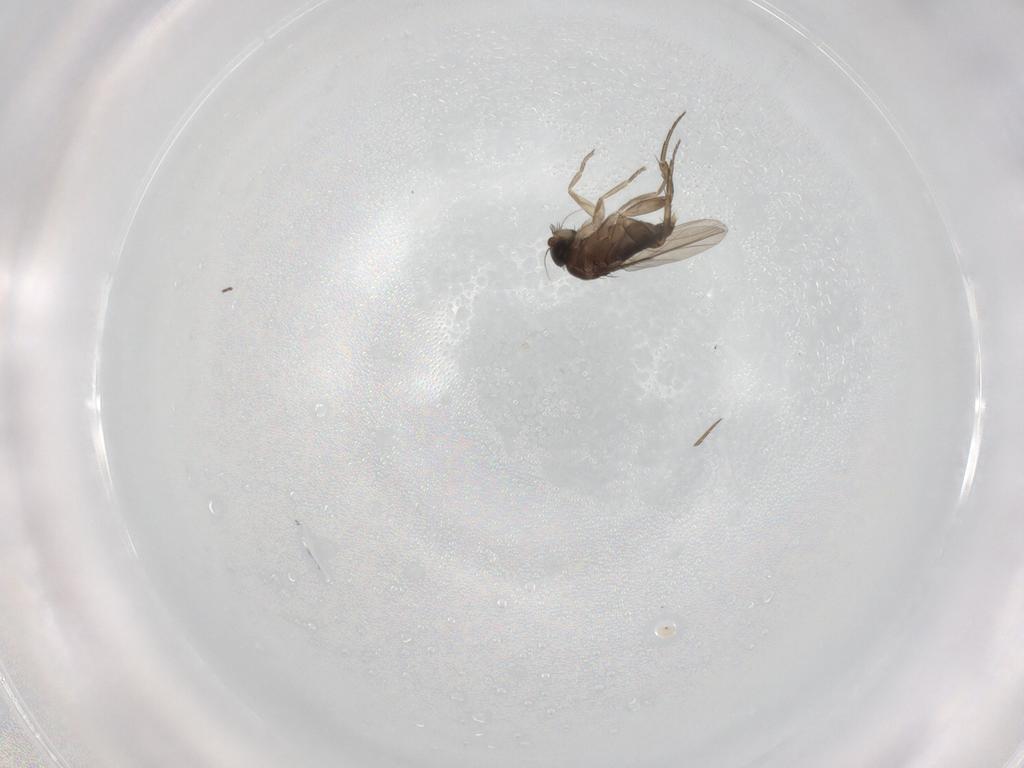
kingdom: Animalia
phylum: Arthropoda
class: Insecta
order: Diptera
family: Phoridae
